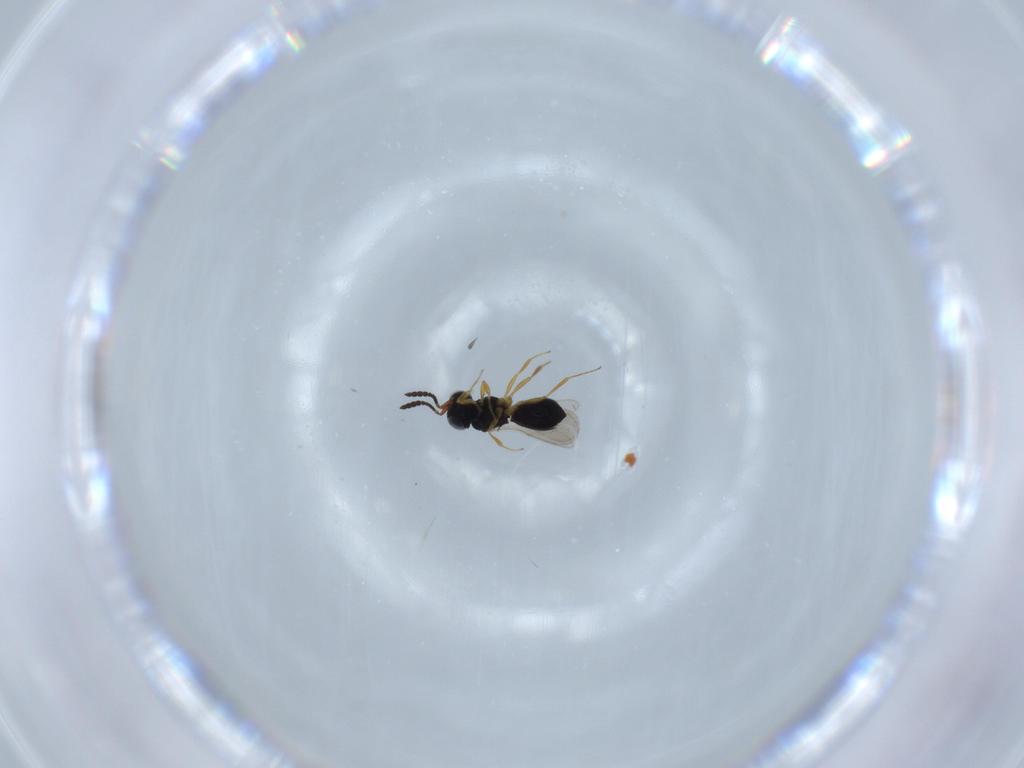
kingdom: Animalia
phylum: Arthropoda
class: Insecta
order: Hymenoptera
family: Scelionidae
